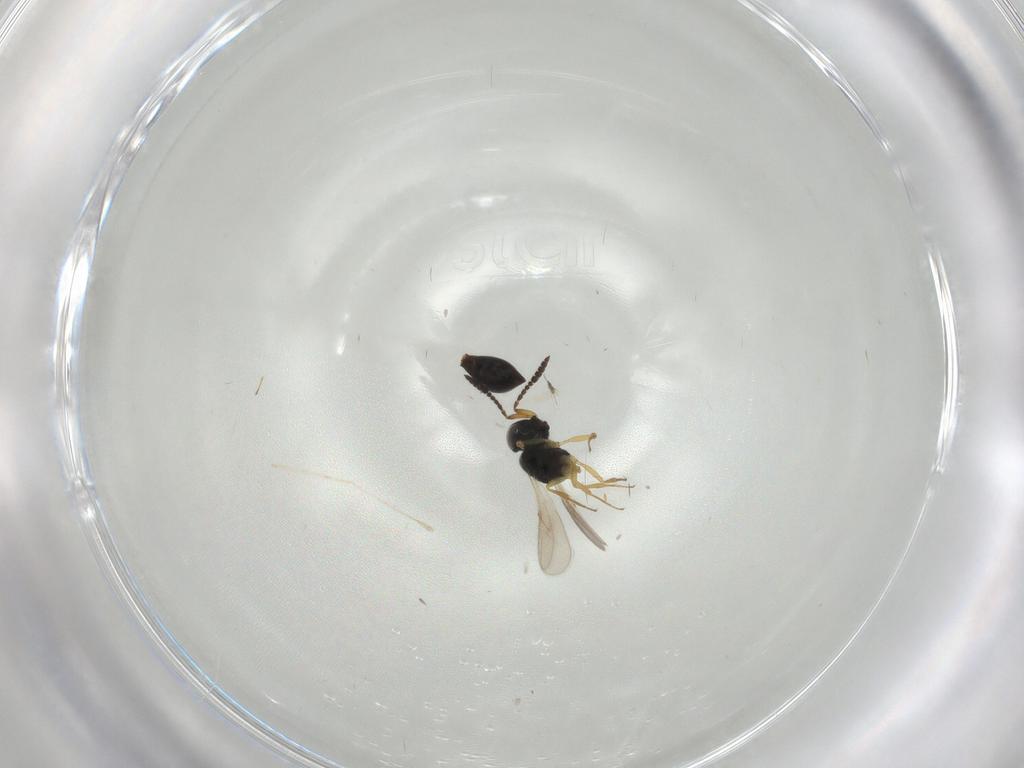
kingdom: Animalia
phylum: Arthropoda
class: Insecta
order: Hymenoptera
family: Scelionidae
